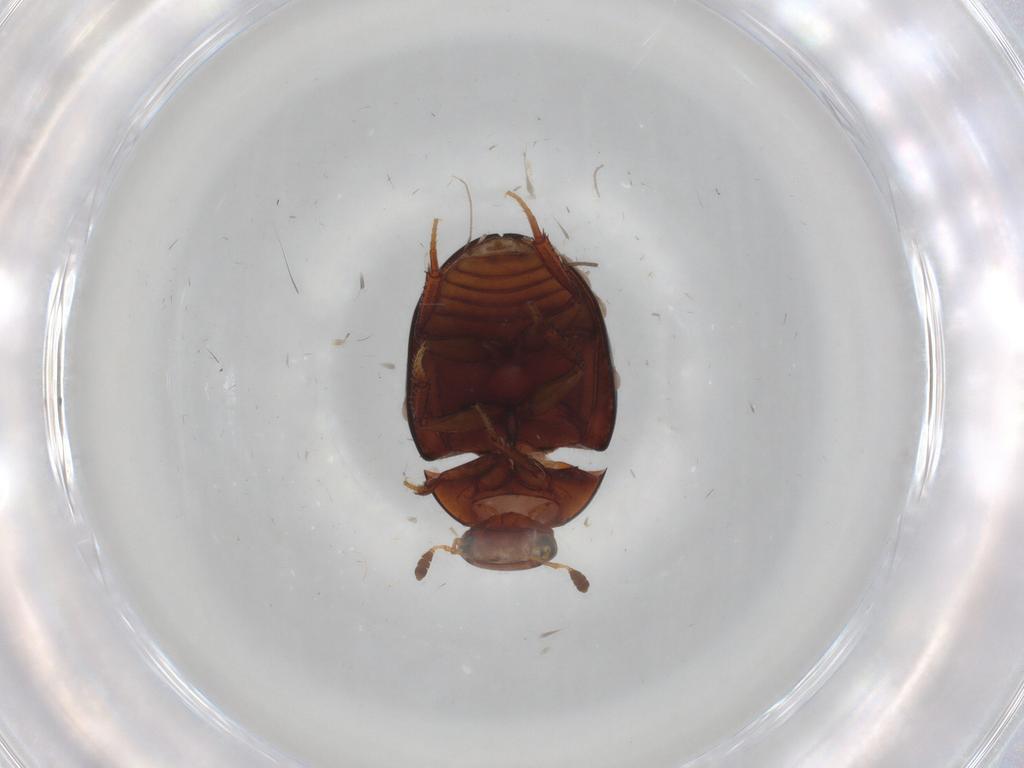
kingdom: Animalia
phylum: Arthropoda
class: Insecta
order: Coleoptera
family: Hydrophilidae
